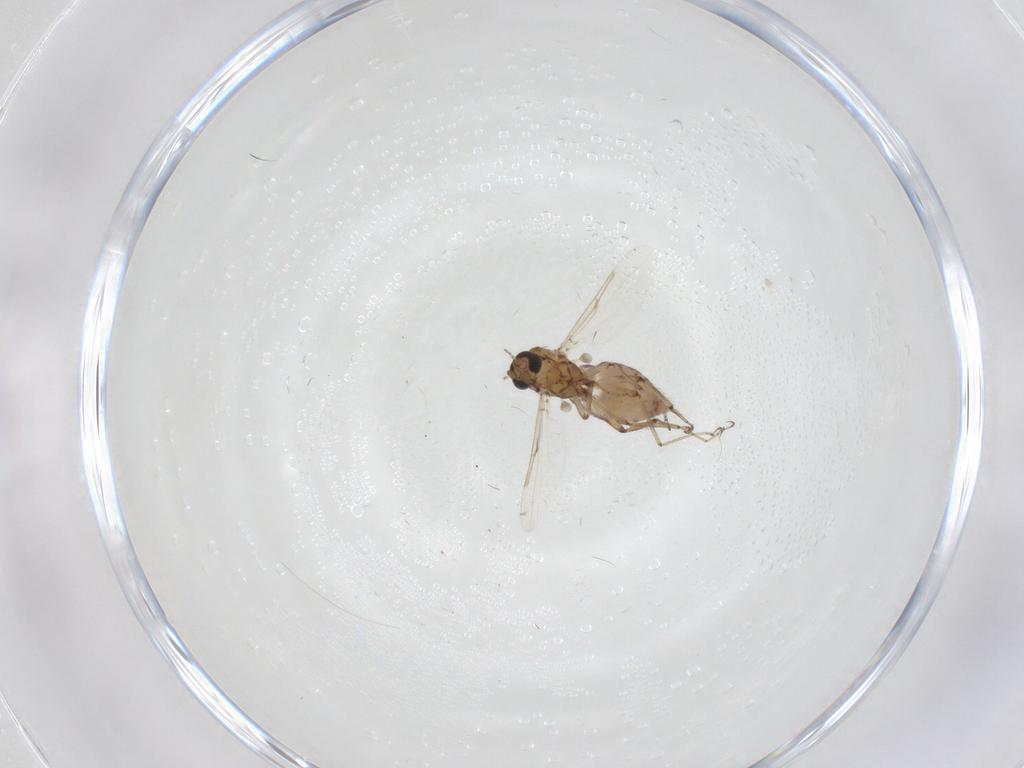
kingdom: Animalia
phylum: Arthropoda
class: Insecta
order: Diptera
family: Ceratopogonidae
